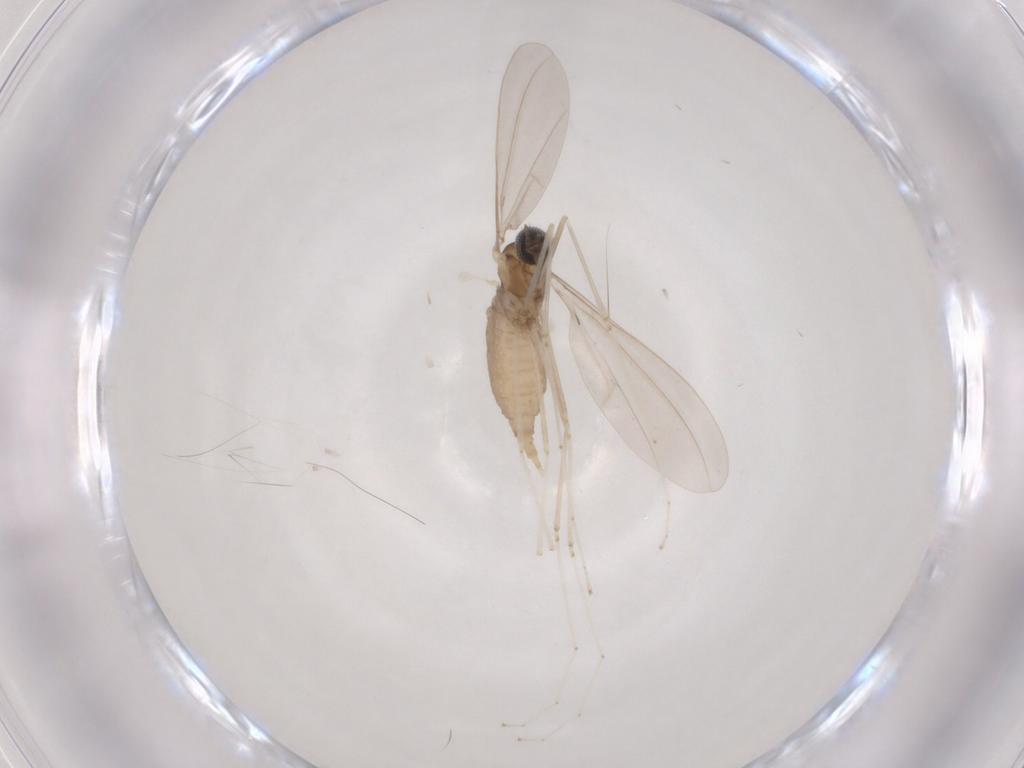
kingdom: Animalia
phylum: Arthropoda
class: Insecta
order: Diptera
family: Cecidomyiidae
